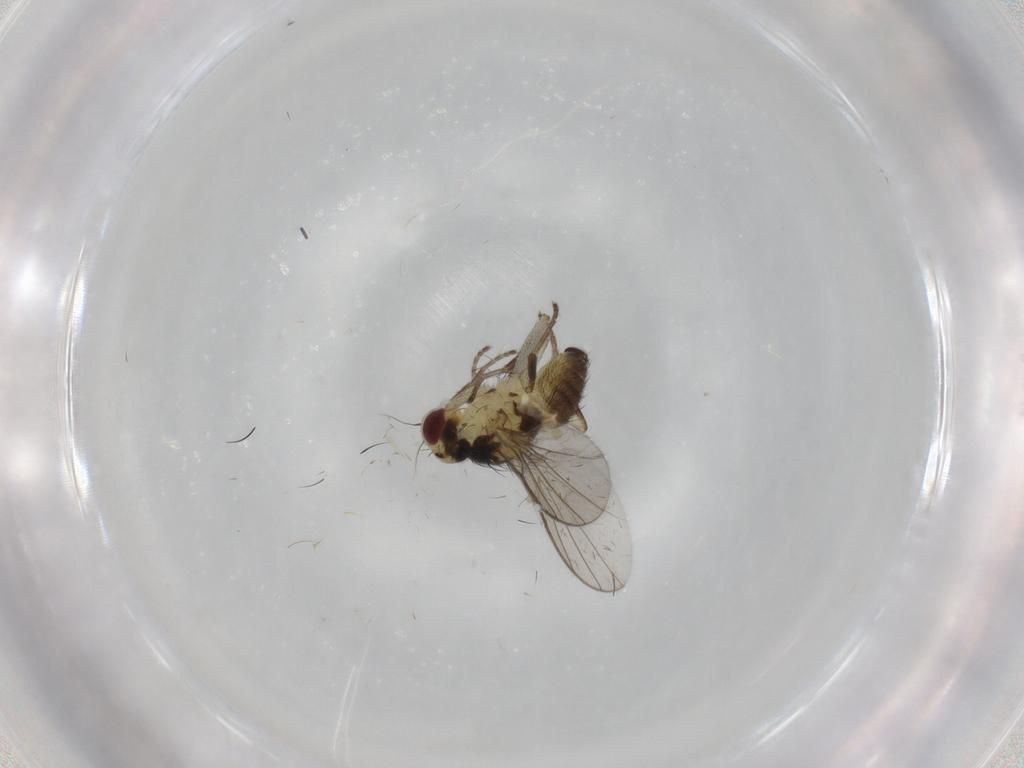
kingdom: Animalia
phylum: Arthropoda
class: Insecta
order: Diptera
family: Agromyzidae
